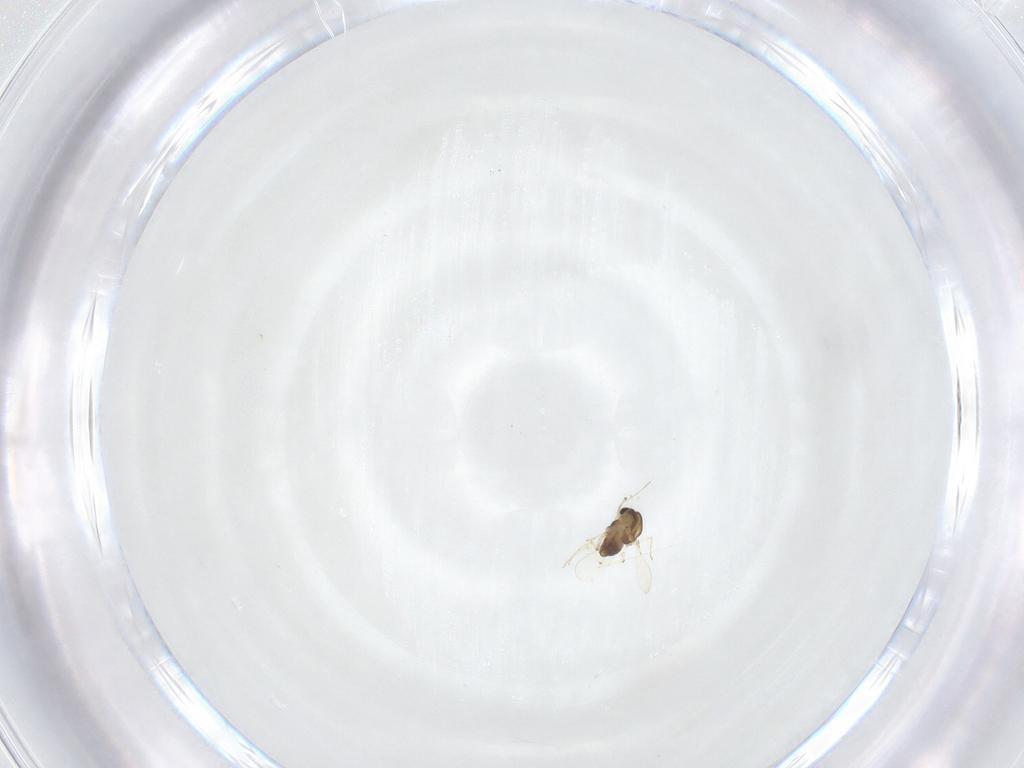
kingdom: Animalia
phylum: Arthropoda
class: Insecta
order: Diptera
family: Chironomidae
